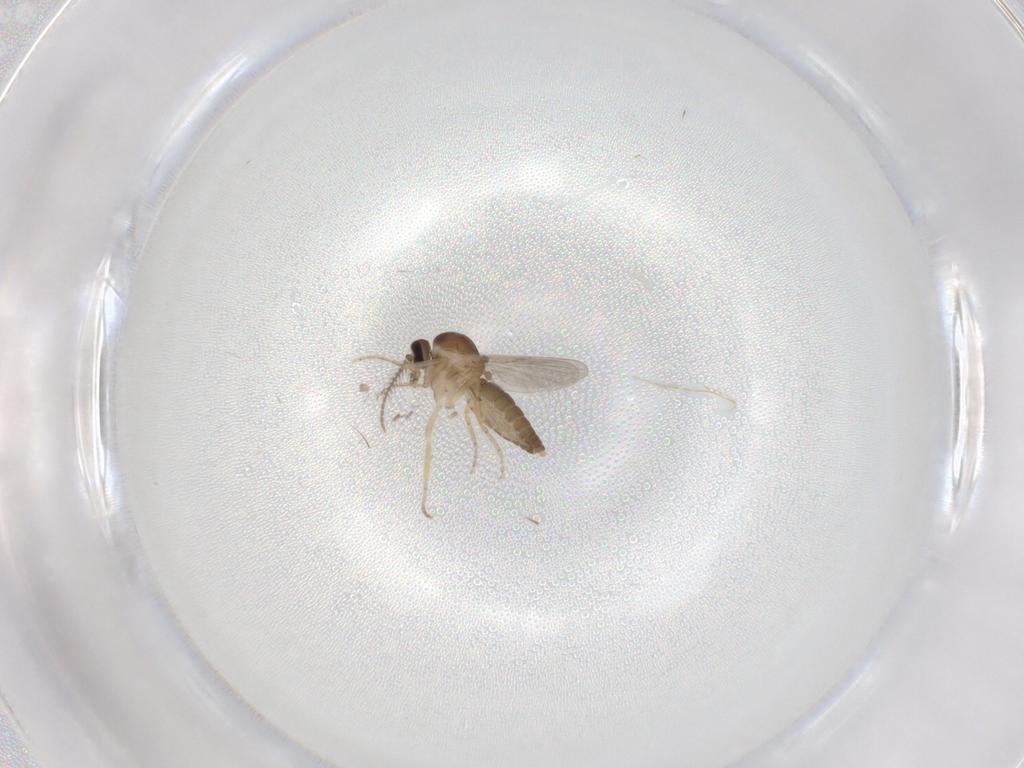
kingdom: Animalia
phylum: Arthropoda
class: Insecta
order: Diptera
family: Ceratopogonidae
